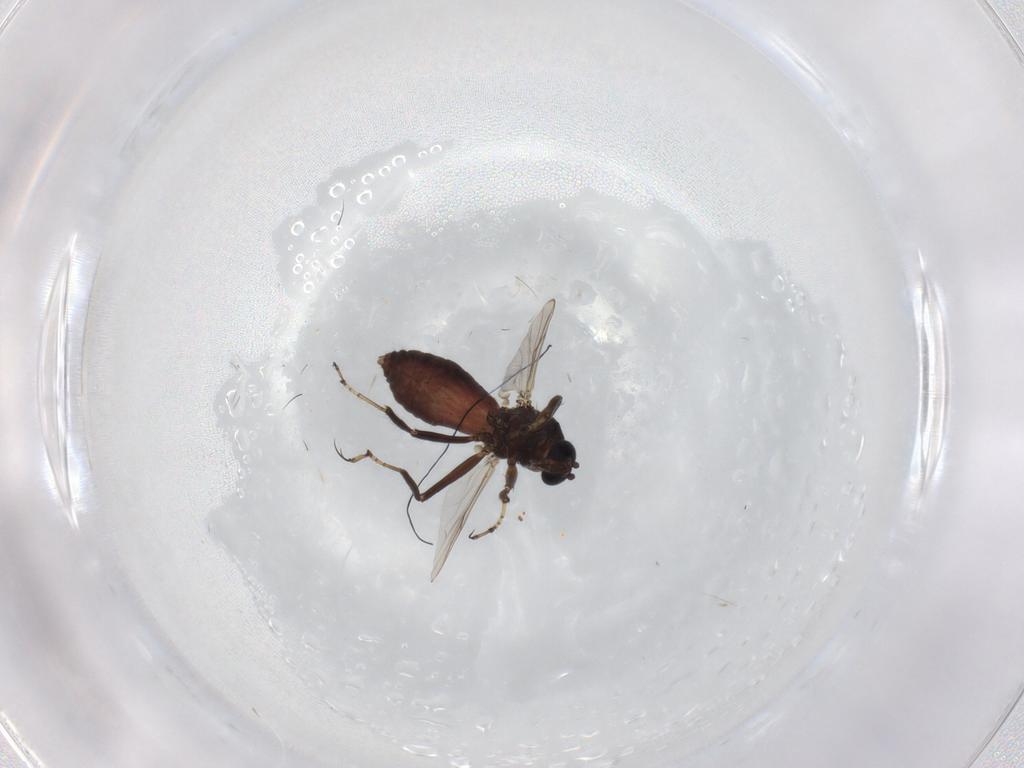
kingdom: Animalia
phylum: Arthropoda
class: Insecta
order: Diptera
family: Ceratopogonidae
